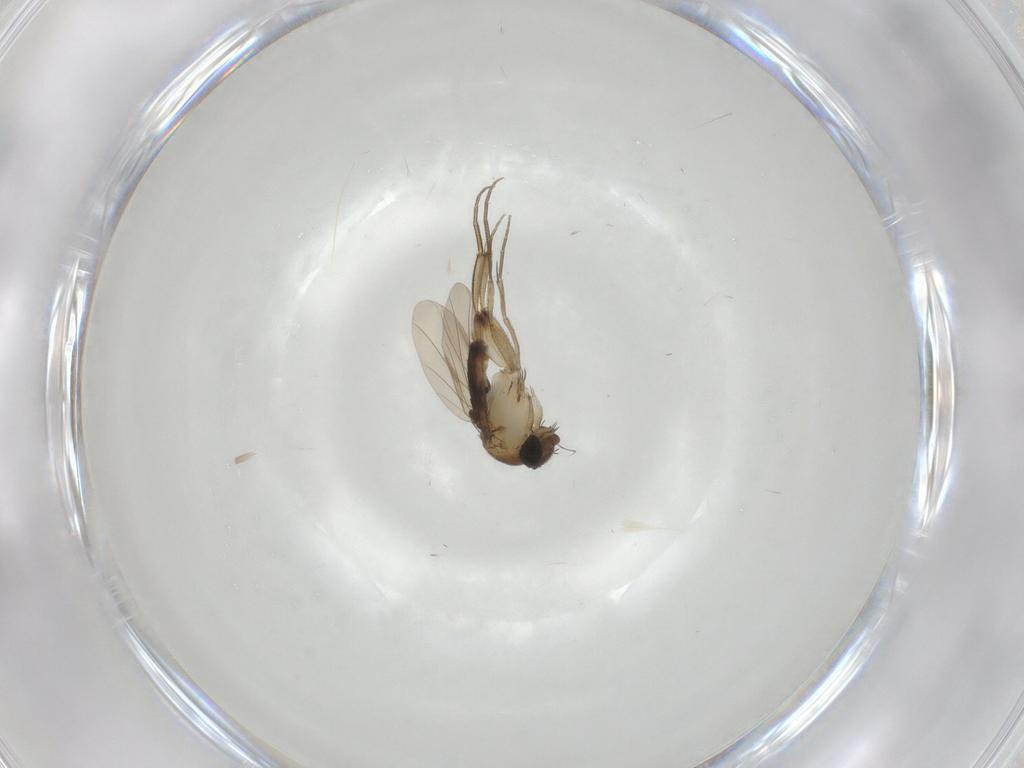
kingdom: Animalia
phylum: Arthropoda
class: Insecta
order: Diptera
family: Phoridae
